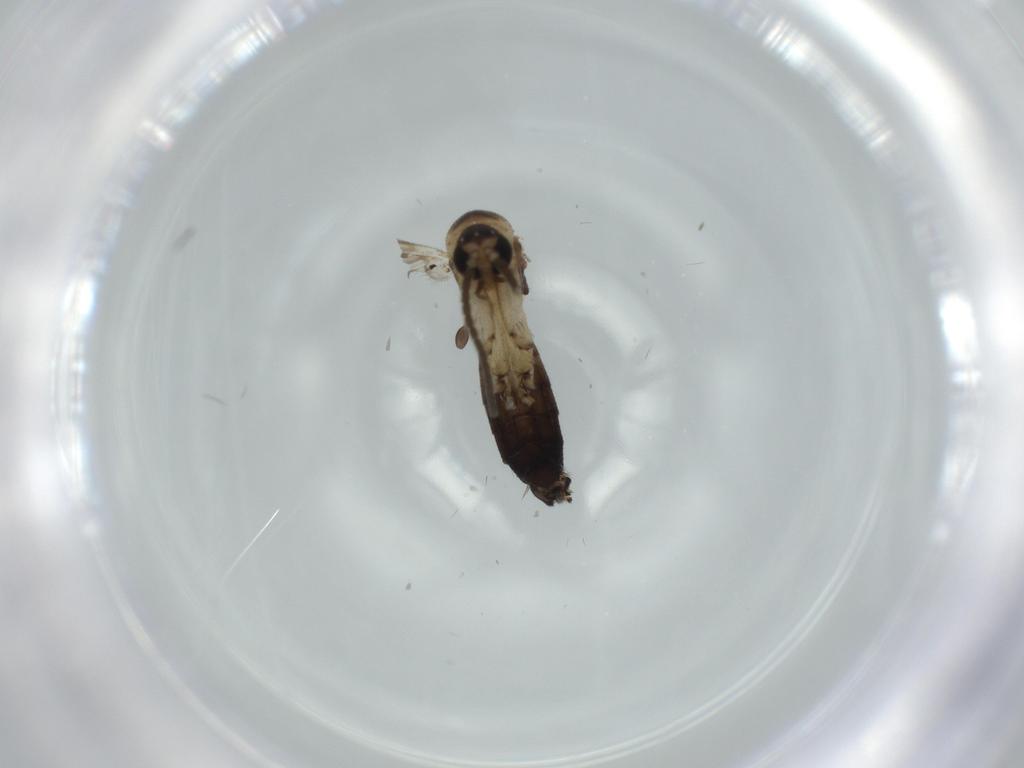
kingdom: Animalia
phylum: Arthropoda
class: Insecta
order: Diptera
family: Mycetophilidae
